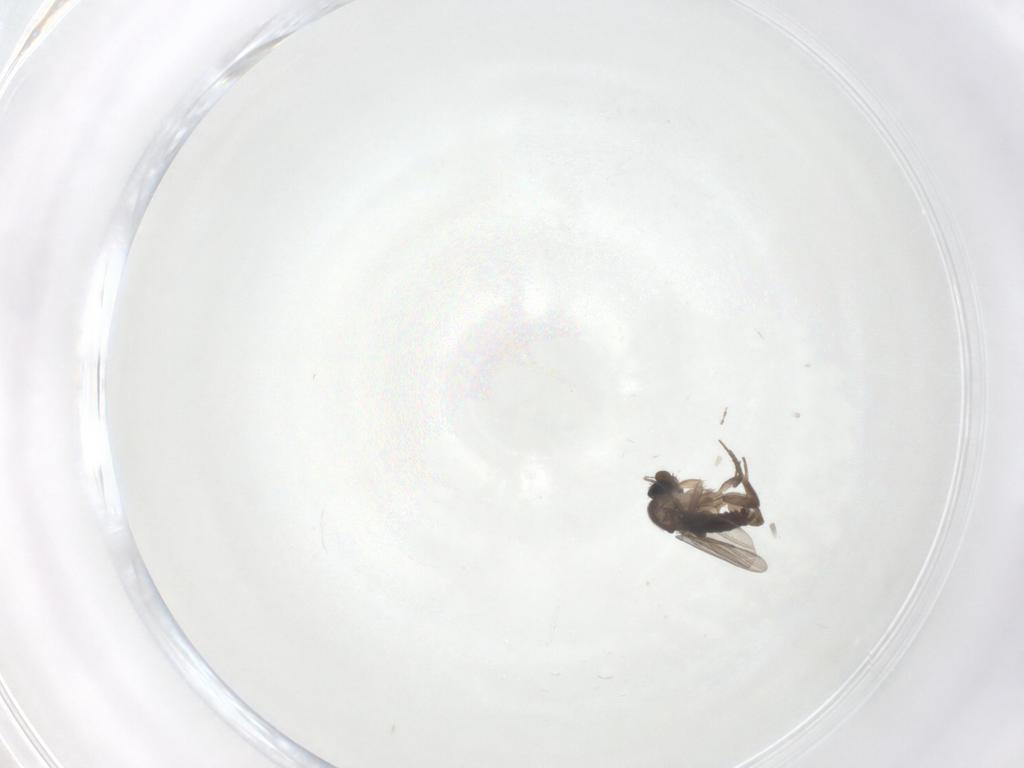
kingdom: Animalia
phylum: Arthropoda
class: Insecta
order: Diptera
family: Phoridae
